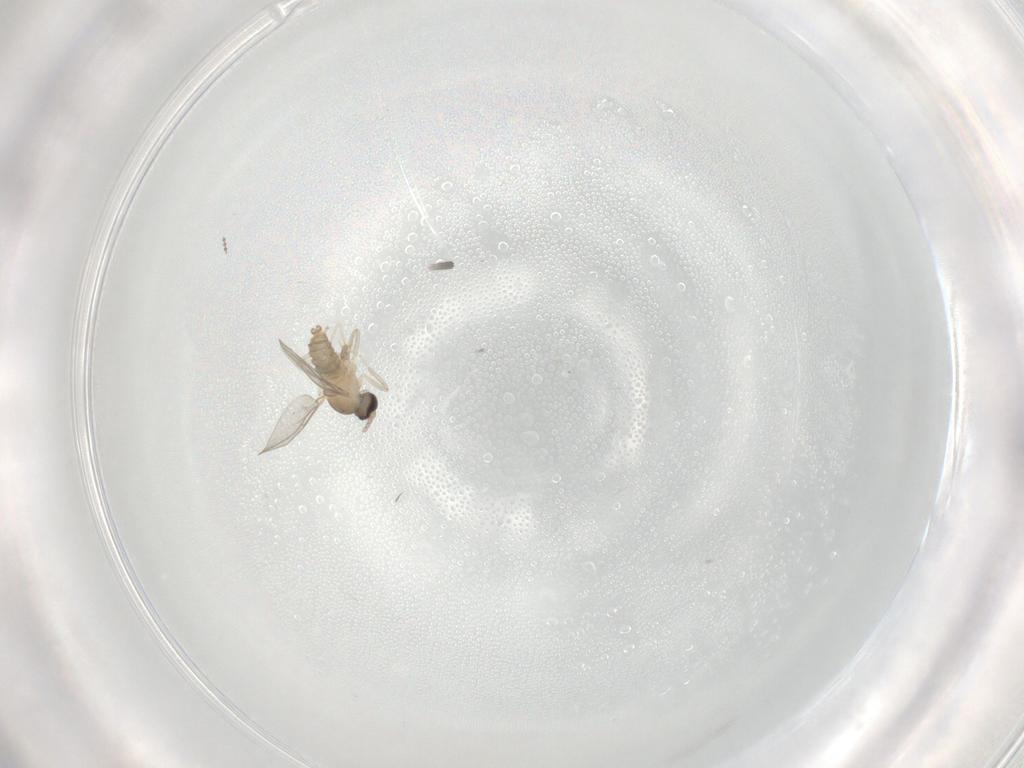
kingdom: Animalia
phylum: Arthropoda
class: Insecta
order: Diptera
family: Cecidomyiidae
